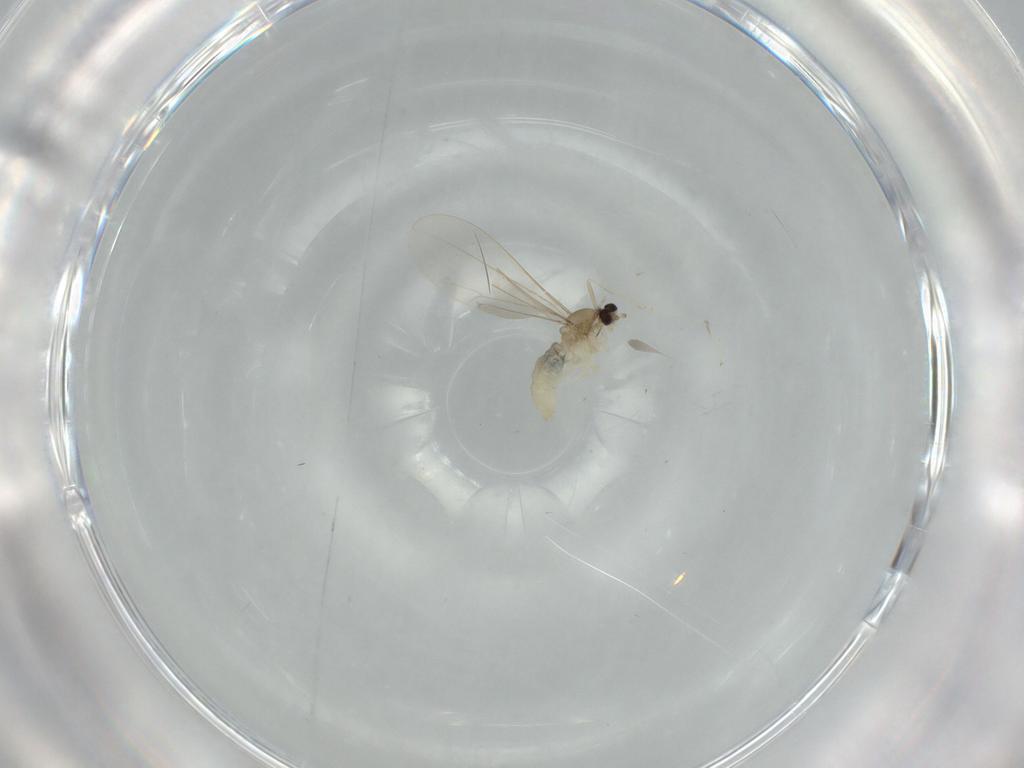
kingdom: Animalia
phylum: Arthropoda
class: Insecta
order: Diptera
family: Cecidomyiidae
